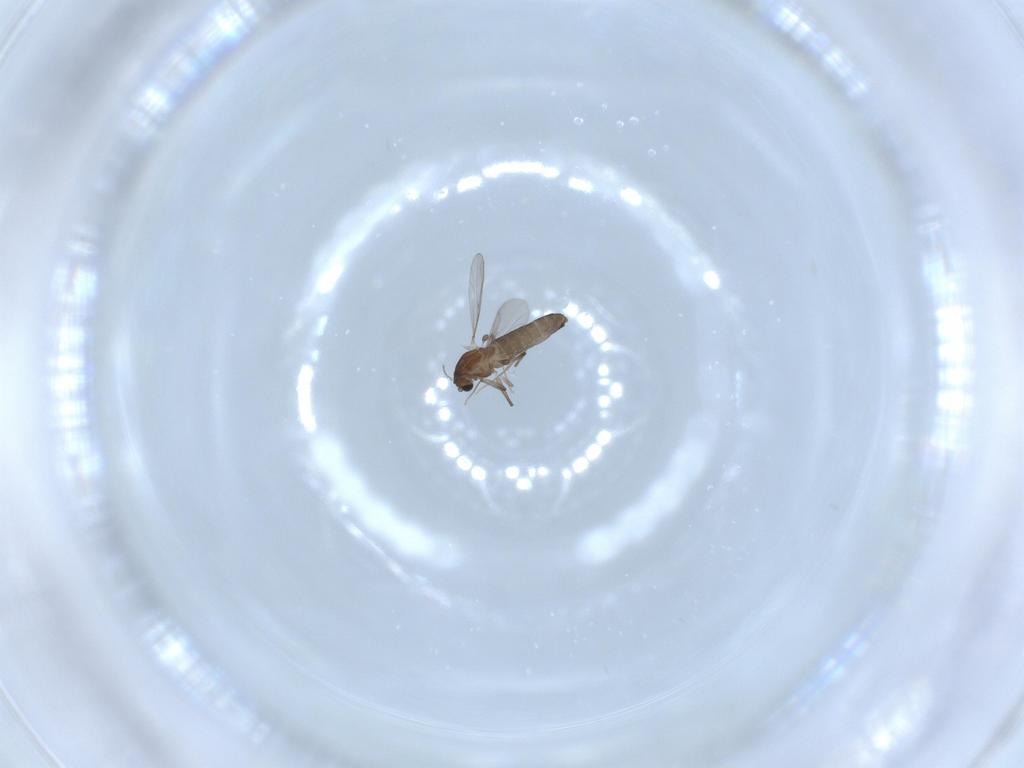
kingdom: Animalia
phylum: Arthropoda
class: Insecta
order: Diptera
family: Chironomidae
